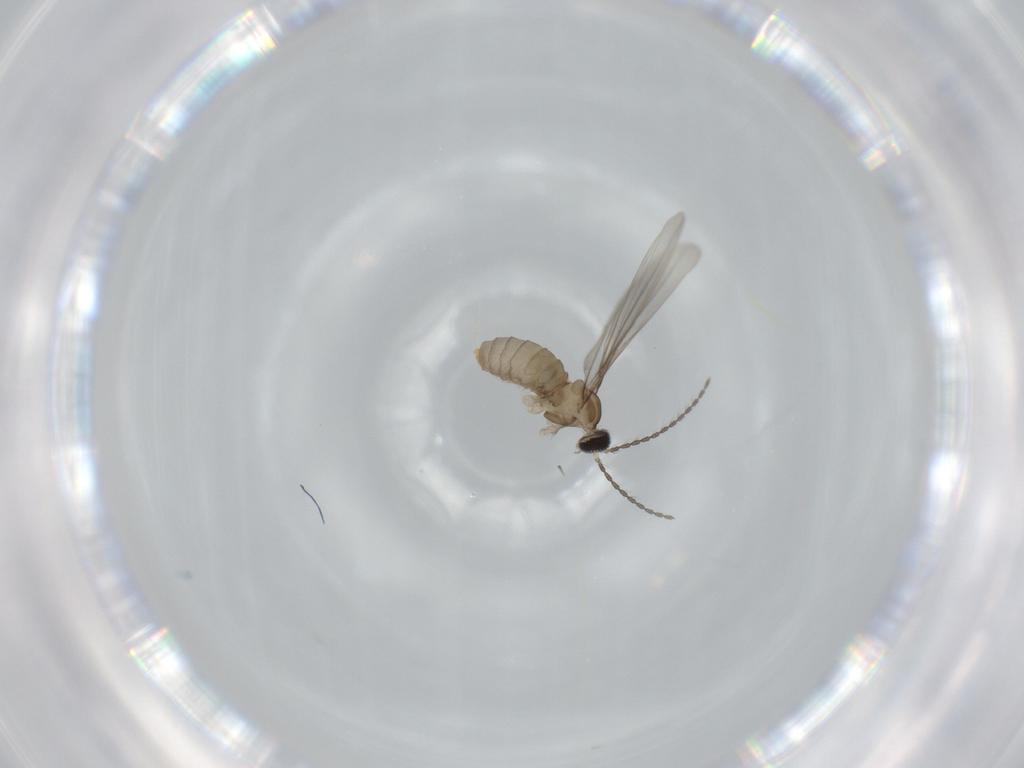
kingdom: Animalia
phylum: Arthropoda
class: Insecta
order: Diptera
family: Cecidomyiidae
